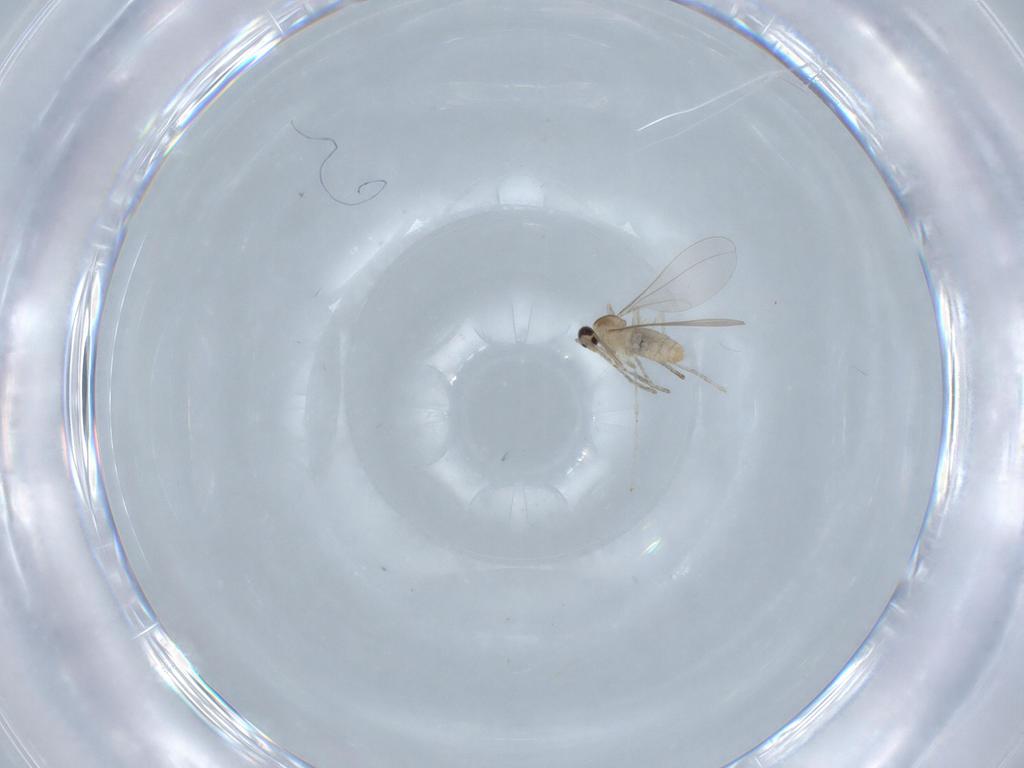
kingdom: Animalia
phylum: Arthropoda
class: Insecta
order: Diptera
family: Cecidomyiidae
